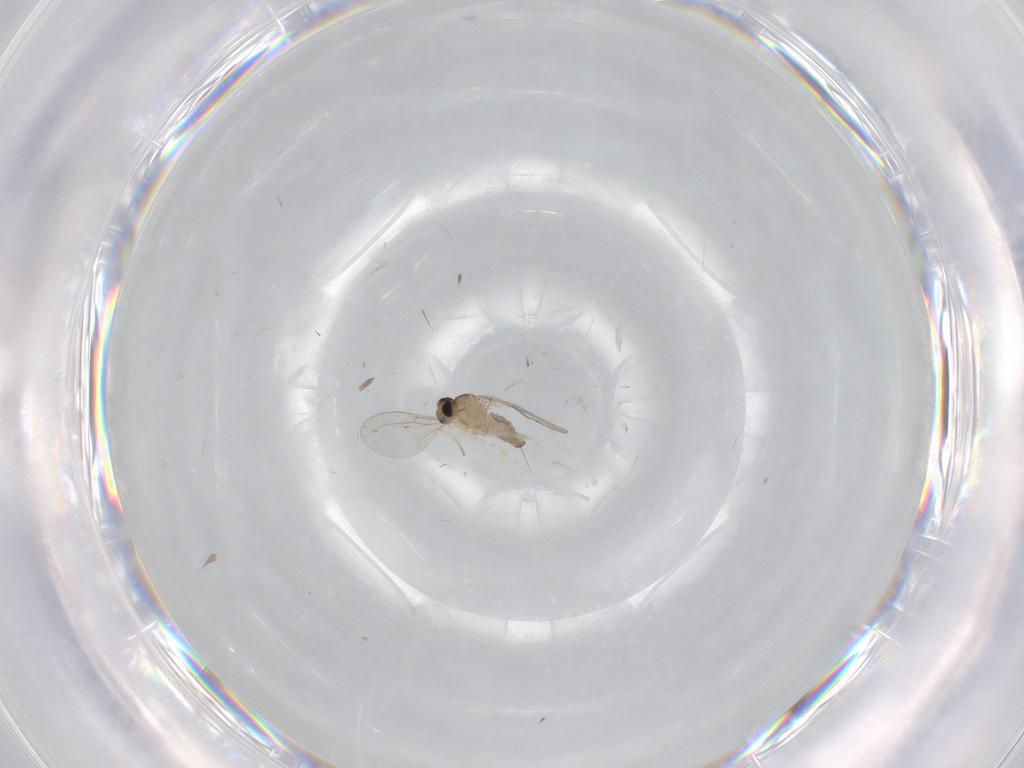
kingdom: Animalia
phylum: Arthropoda
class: Insecta
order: Diptera
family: Cecidomyiidae
